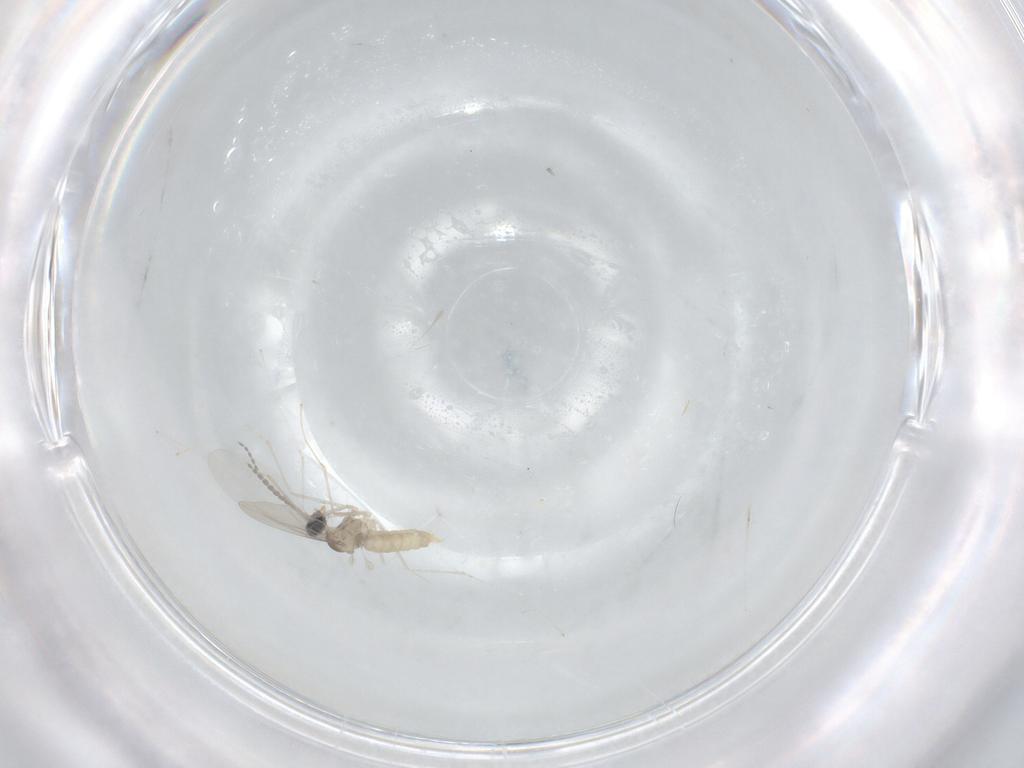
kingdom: Animalia
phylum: Arthropoda
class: Insecta
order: Diptera
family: Cecidomyiidae
